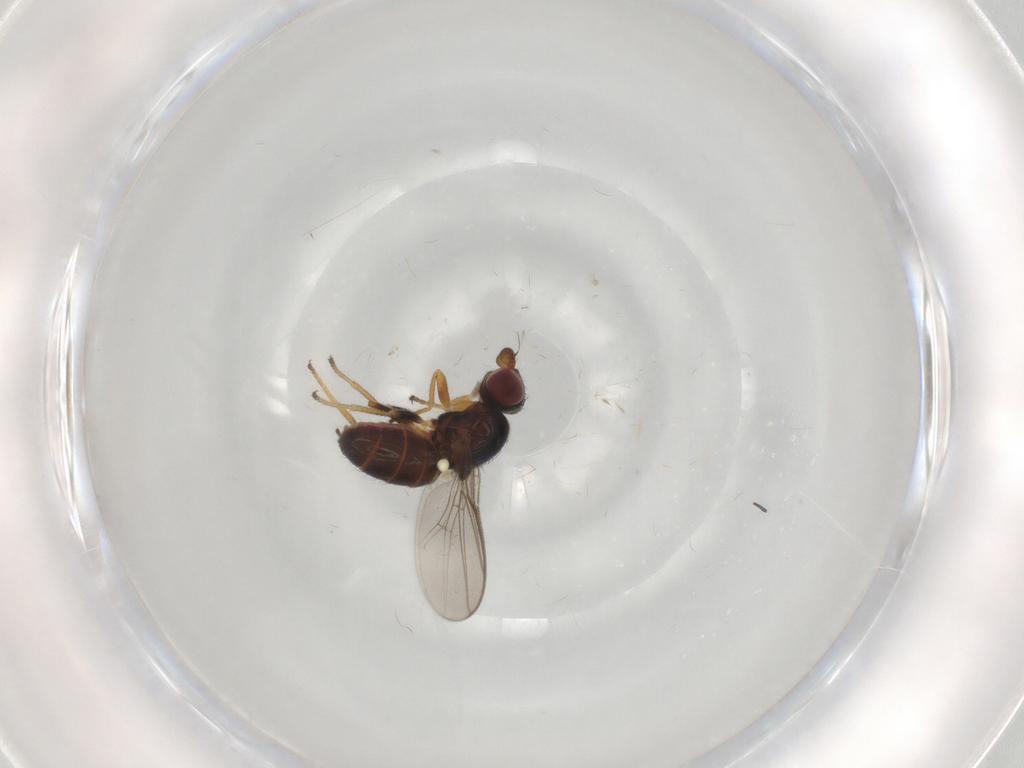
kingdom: Animalia
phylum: Arthropoda
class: Insecta
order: Diptera
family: Chloropidae
